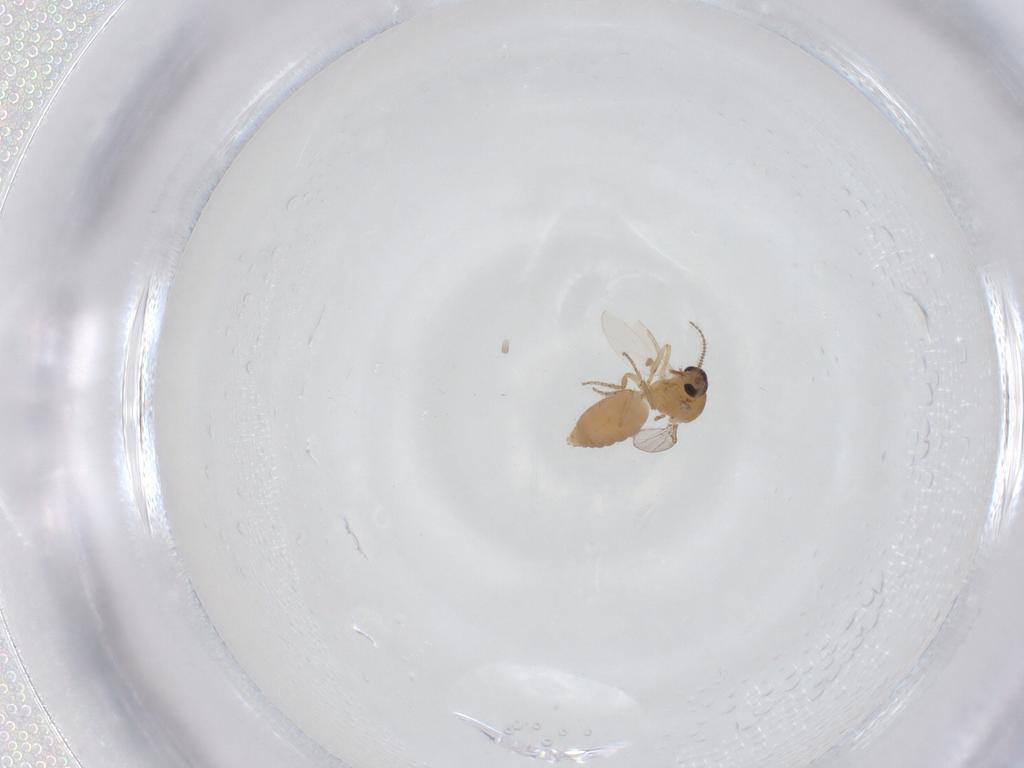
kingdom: Animalia
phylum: Arthropoda
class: Insecta
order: Diptera
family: Ceratopogonidae
